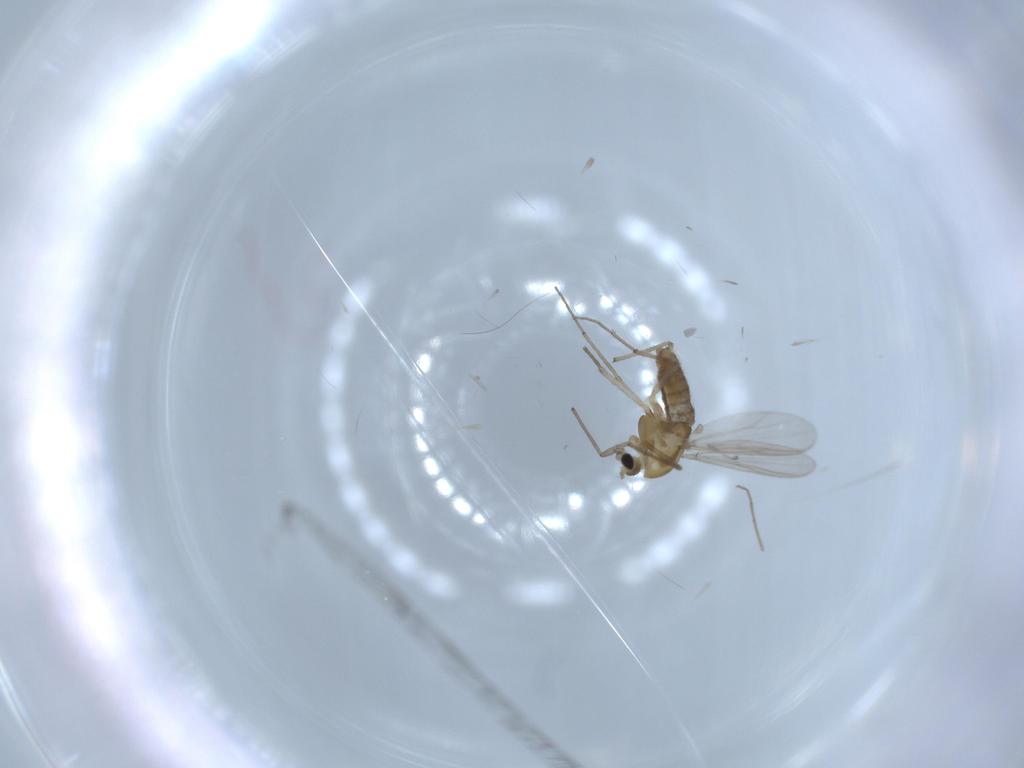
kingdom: Animalia
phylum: Arthropoda
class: Insecta
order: Diptera
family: Chironomidae
